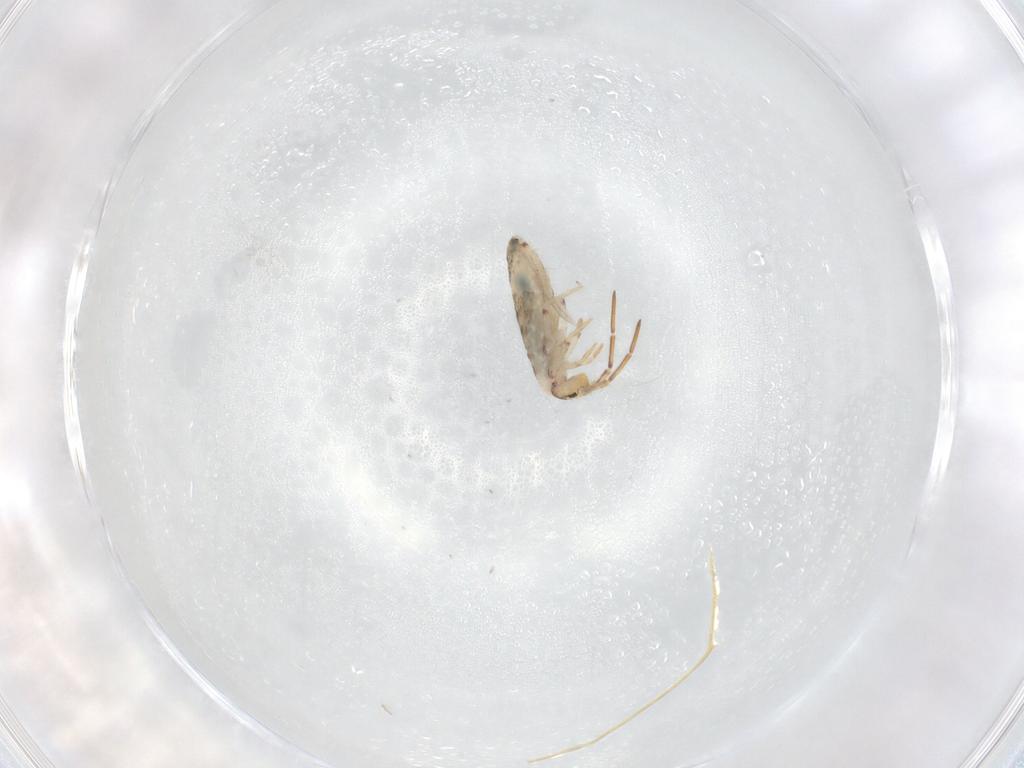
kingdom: Animalia
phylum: Arthropoda
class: Collembola
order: Entomobryomorpha
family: Entomobryidae
